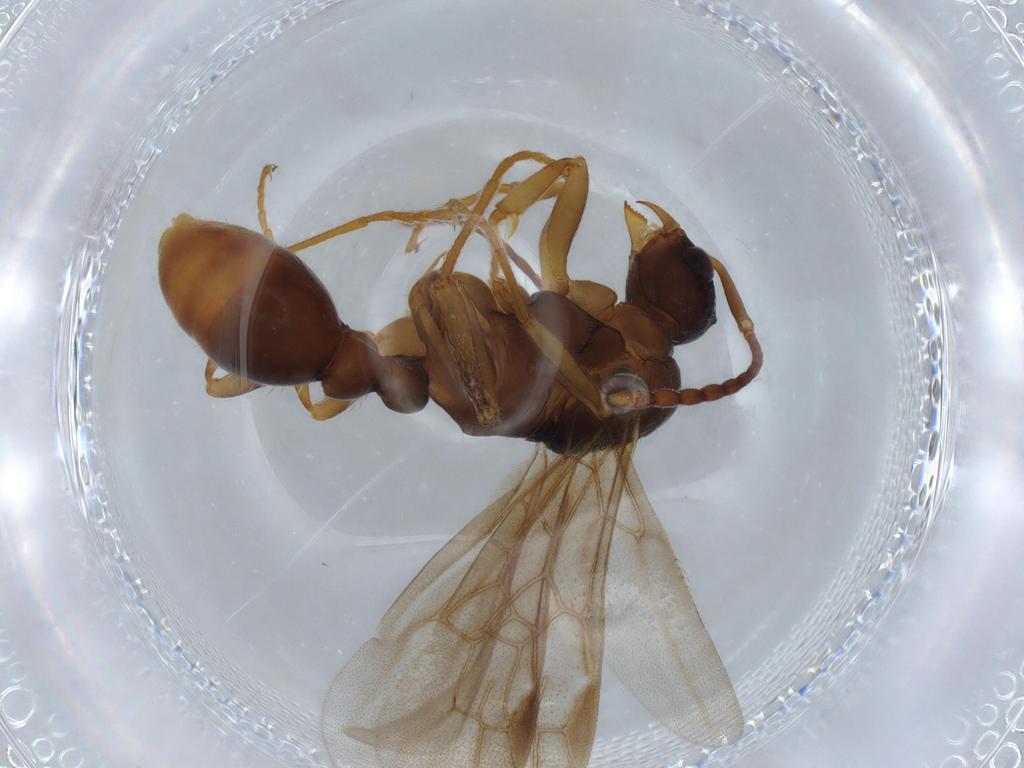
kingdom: Animalia
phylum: Arthropoda
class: Insecta
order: Hymenoptera
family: Formicidae
